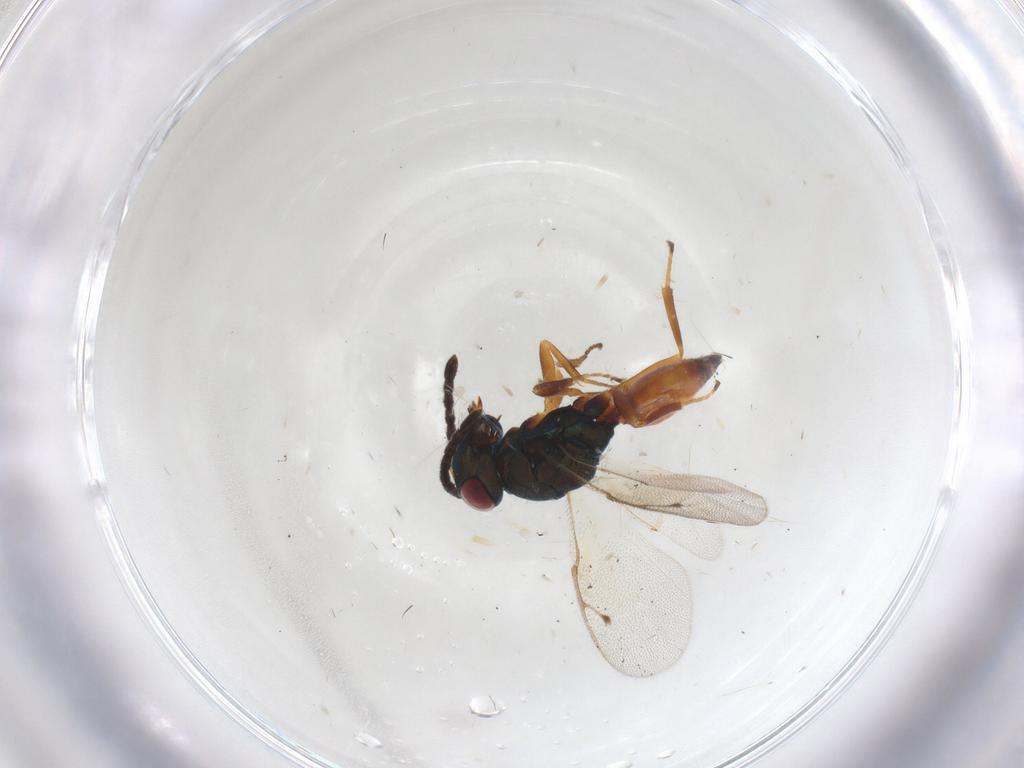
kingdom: Animalia
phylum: Arthropoda
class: Insecta
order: Hymenoptera
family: Pteromalidae
